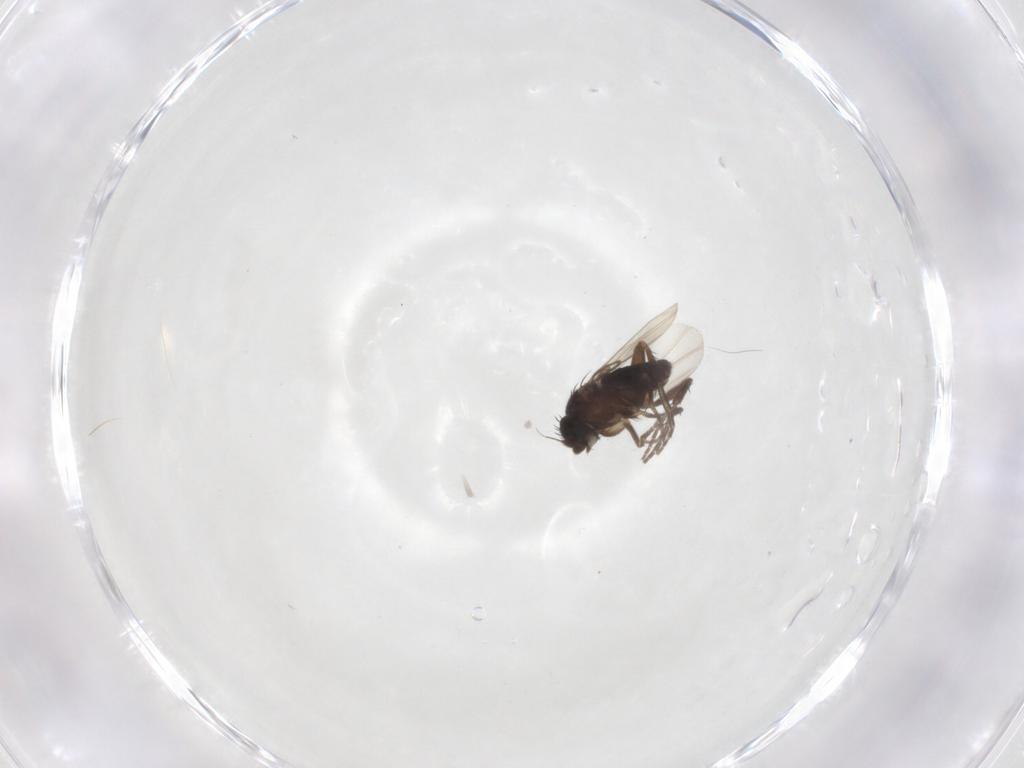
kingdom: Animalia
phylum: Arthropoda
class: Insecta
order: Diptera
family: Phoridae
